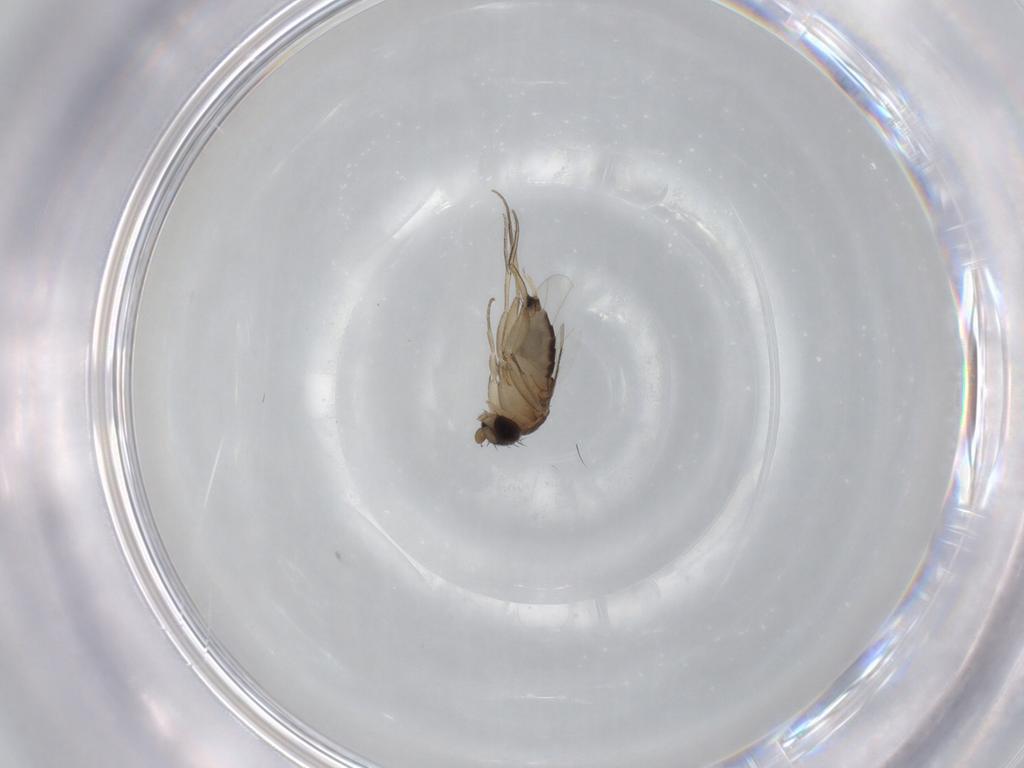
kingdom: Animalia
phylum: Arthropoda
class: Insecta
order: Diptera
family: Phoridae
